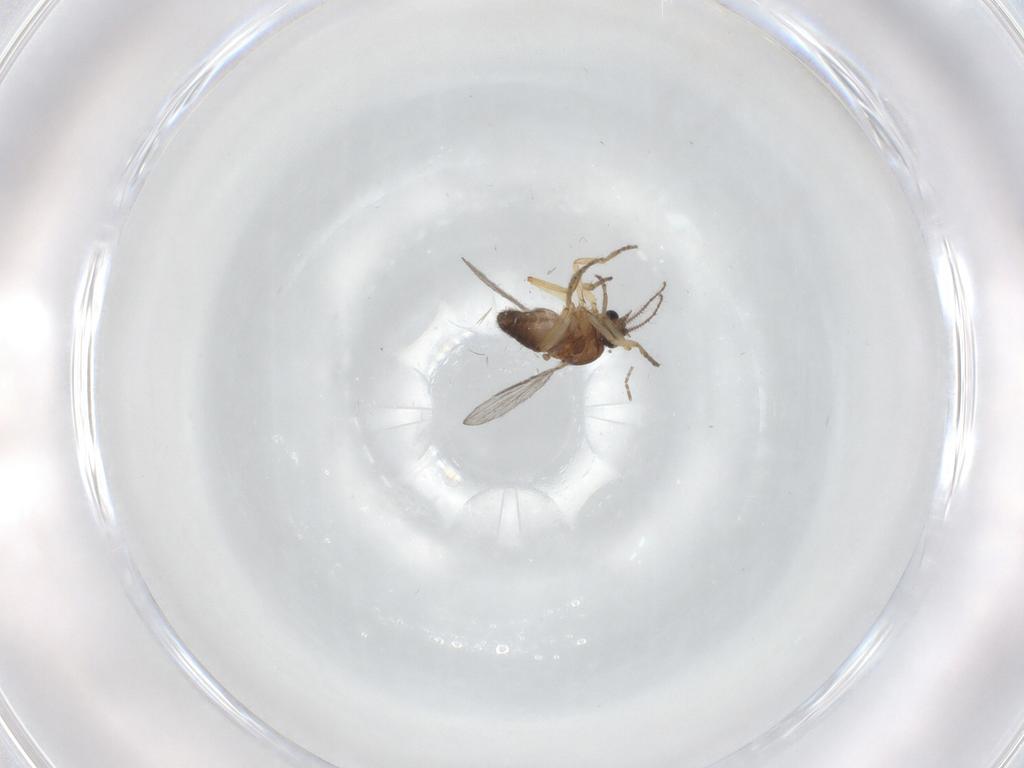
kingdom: Animalia
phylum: Arthropoda
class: Insecta
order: Diptera
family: Ceratopogonidae
